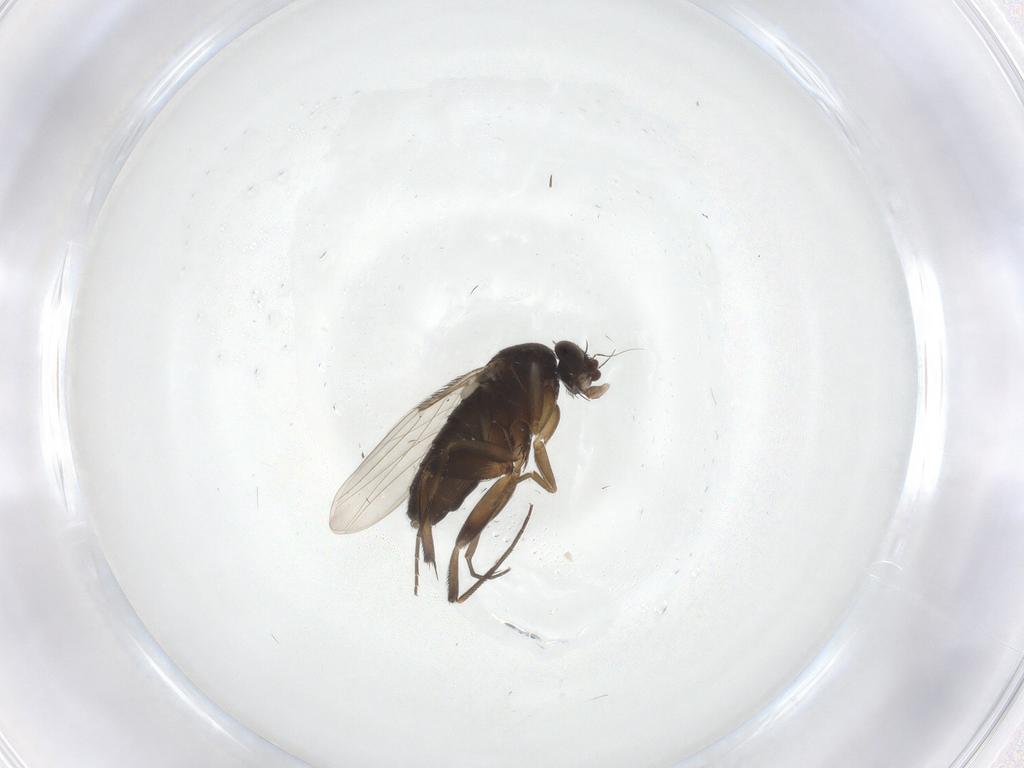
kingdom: Animalia
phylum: Arthropoda
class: Insecta
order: Diptera
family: Phoridae
